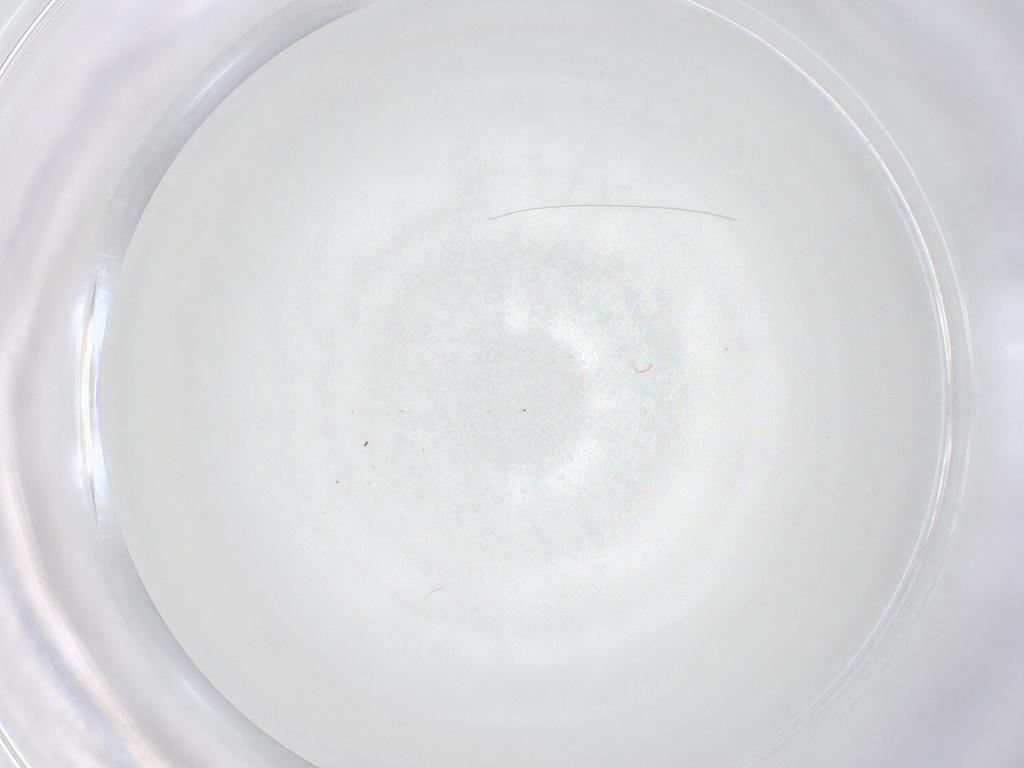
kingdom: Animalia
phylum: Arthropoda
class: Insecta
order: Diptera
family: Cecidomyiidae
